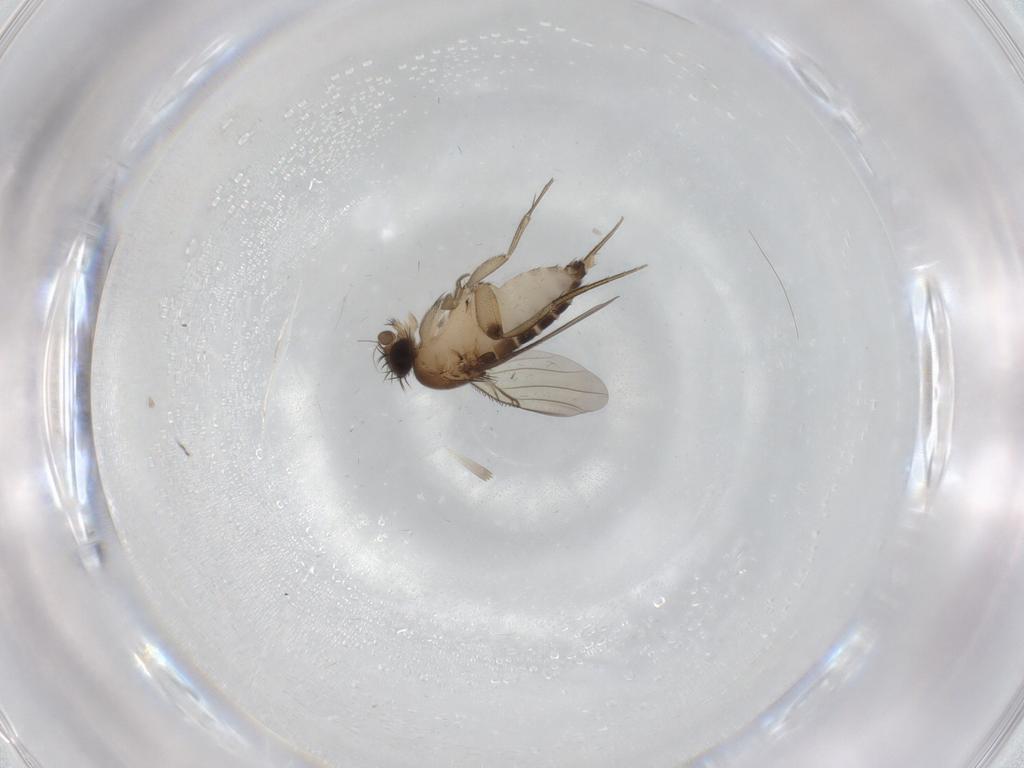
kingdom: Animalia
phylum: Arthropoda
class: Insecta
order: Diptera
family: Phoridae
